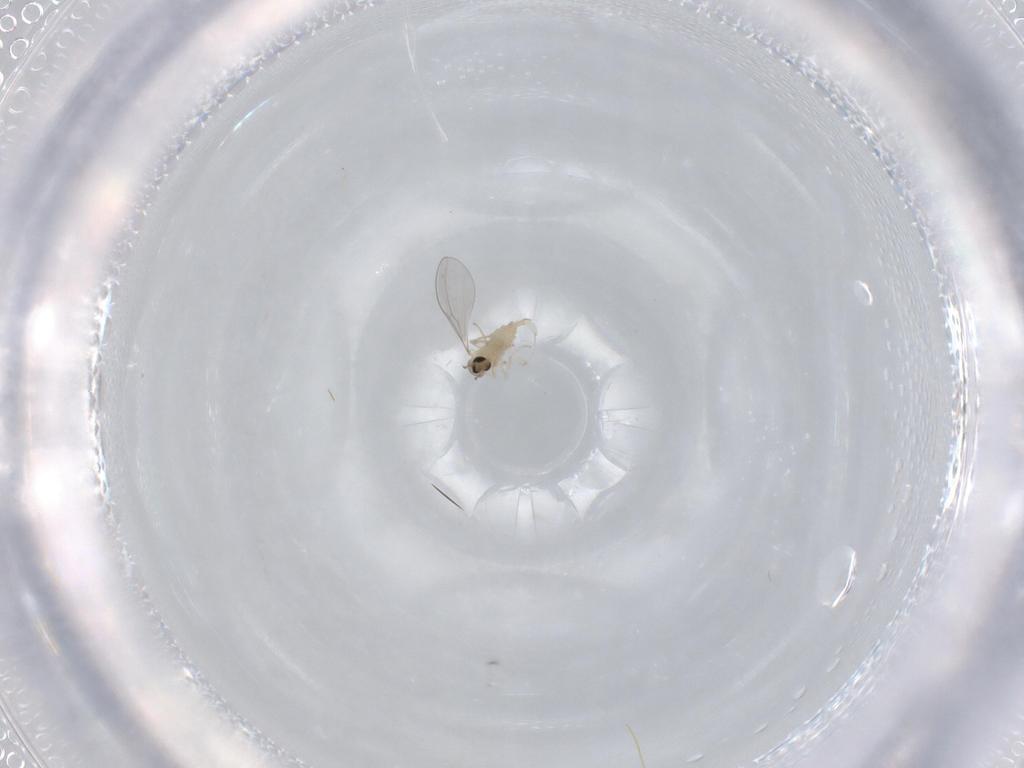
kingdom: Animalia
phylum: Arthropoda
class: Insecta
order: Diptera
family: Cecidomyiidae
